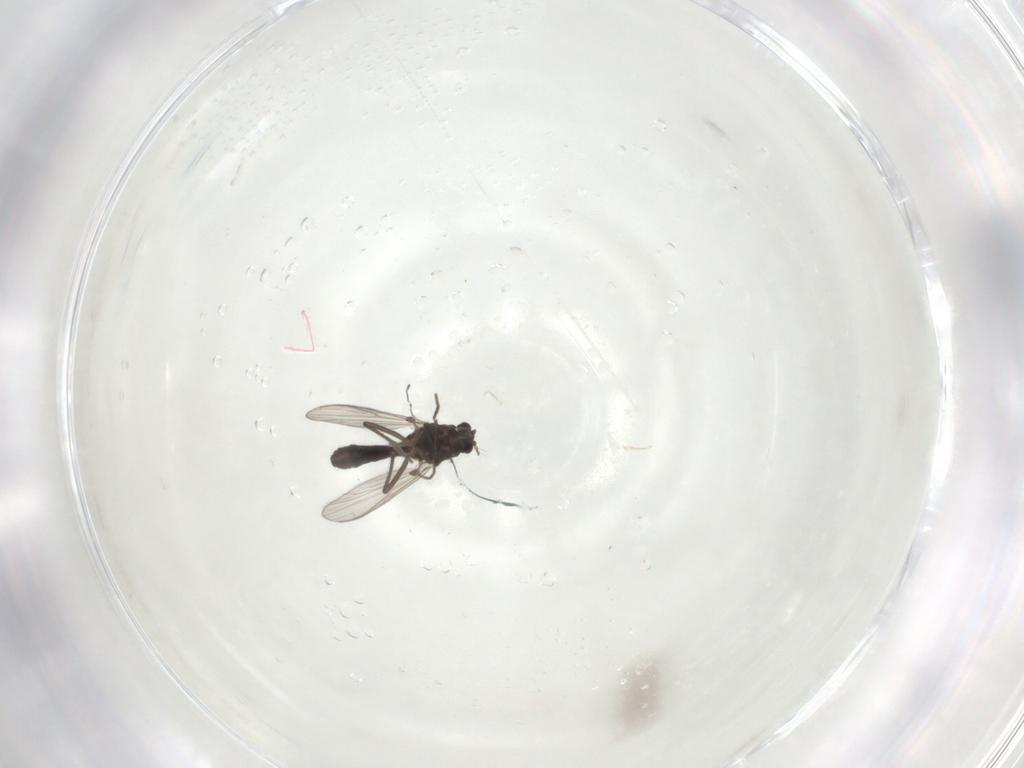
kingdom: Animalia
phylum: Arthropoda
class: Insecta
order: Diptera
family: Chironomidae
